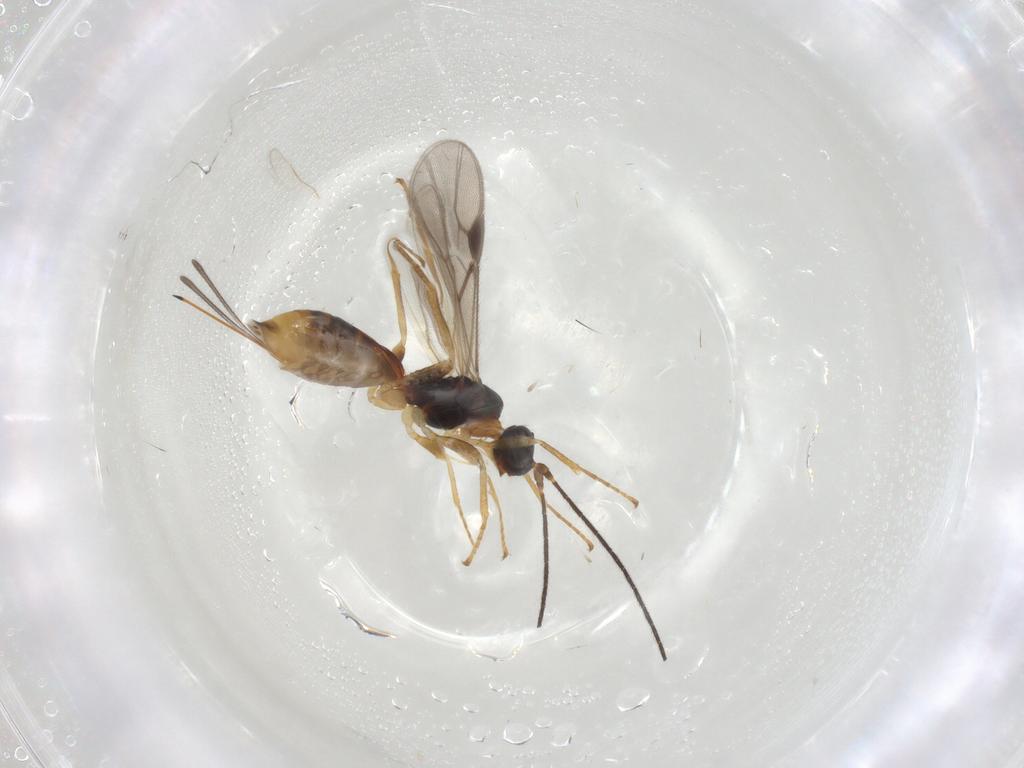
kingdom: Animalia
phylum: Arthropoda
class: Insecta
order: Hymenoptera
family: Braconidae
